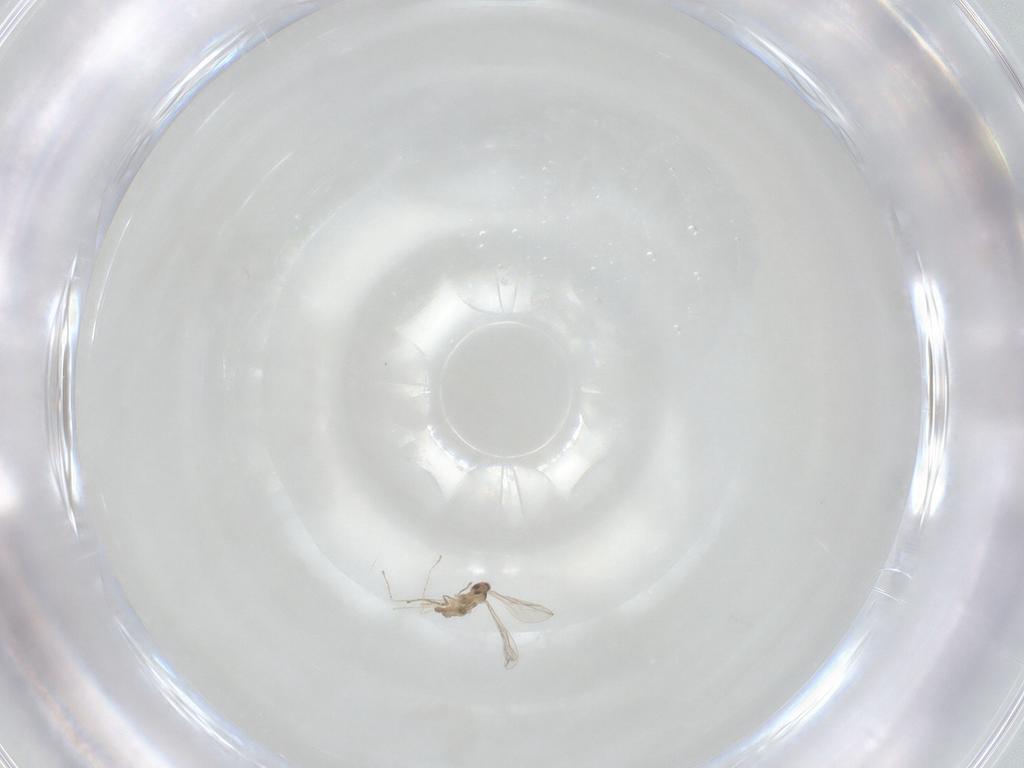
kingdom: Animalia
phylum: Arthropoda
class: Insecta
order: Diptera
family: Cecidomyiidae
